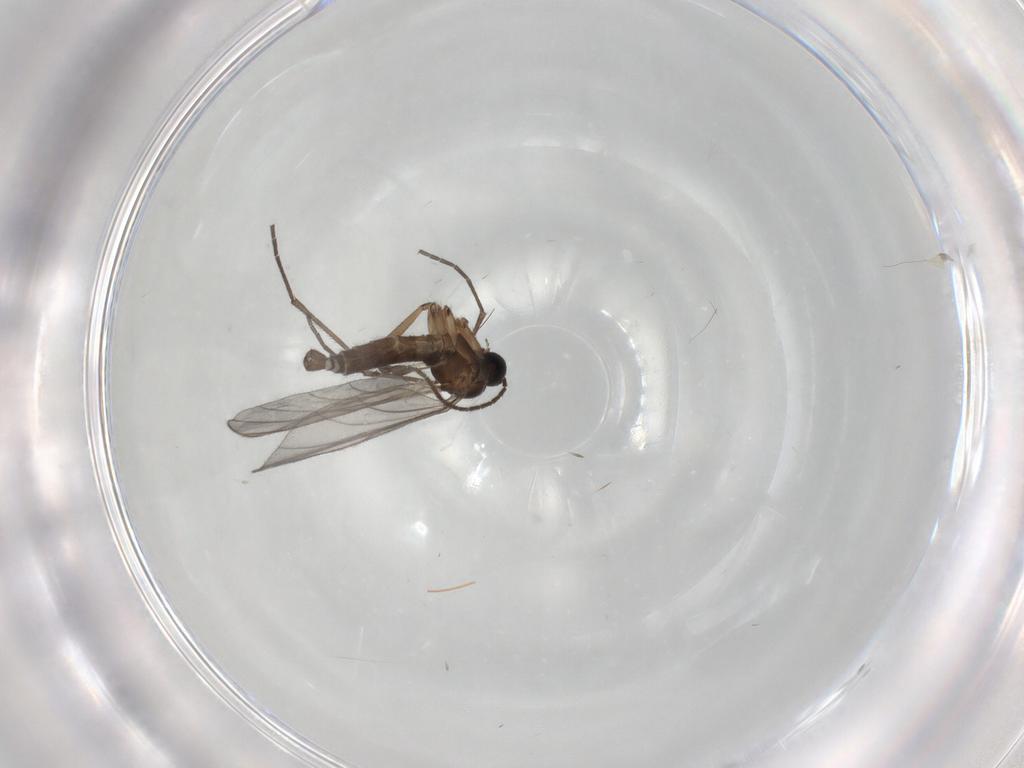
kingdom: Animalia
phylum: Arthropoda
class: Insecta
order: Diptera
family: Sciaridae
